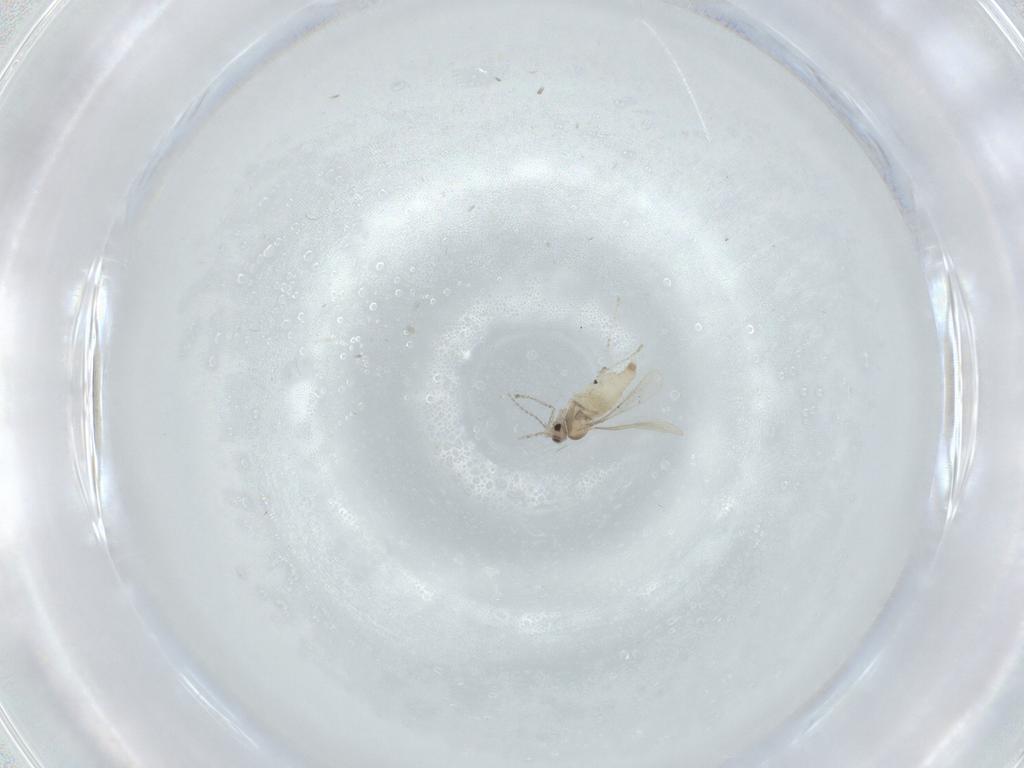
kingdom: Animalia
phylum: Arthropoda
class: Insecta
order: Diptera
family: Cecidomyiidae
